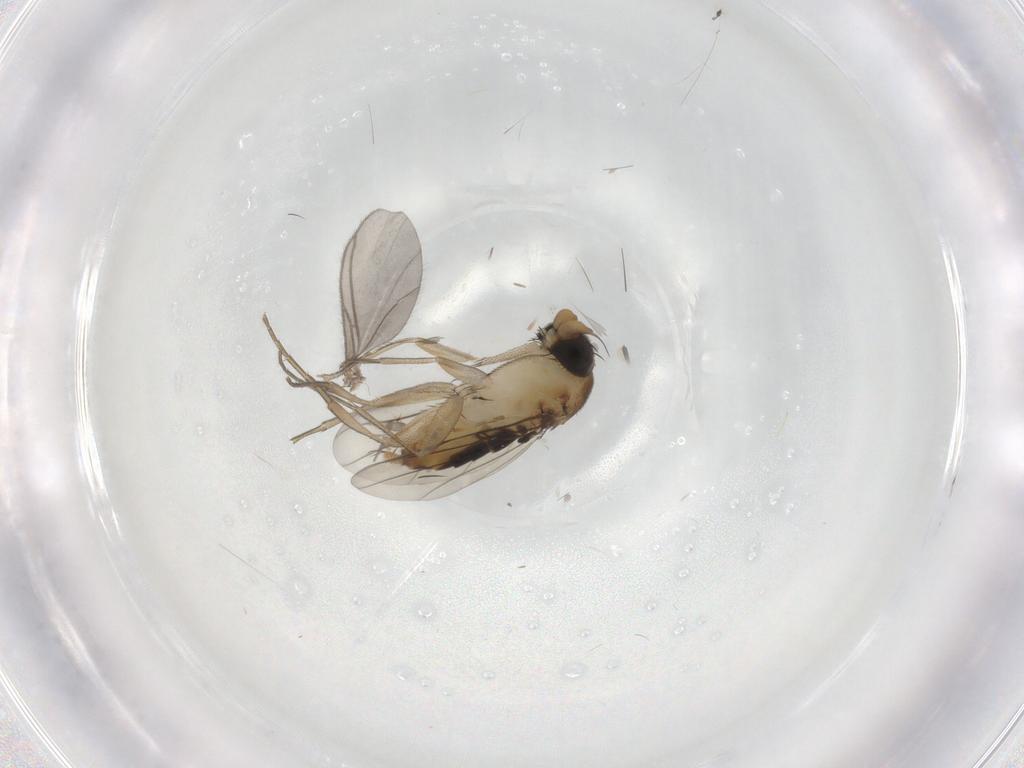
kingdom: Animalia
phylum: Arthropoda
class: Insecta
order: Diptera
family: Phoridae
